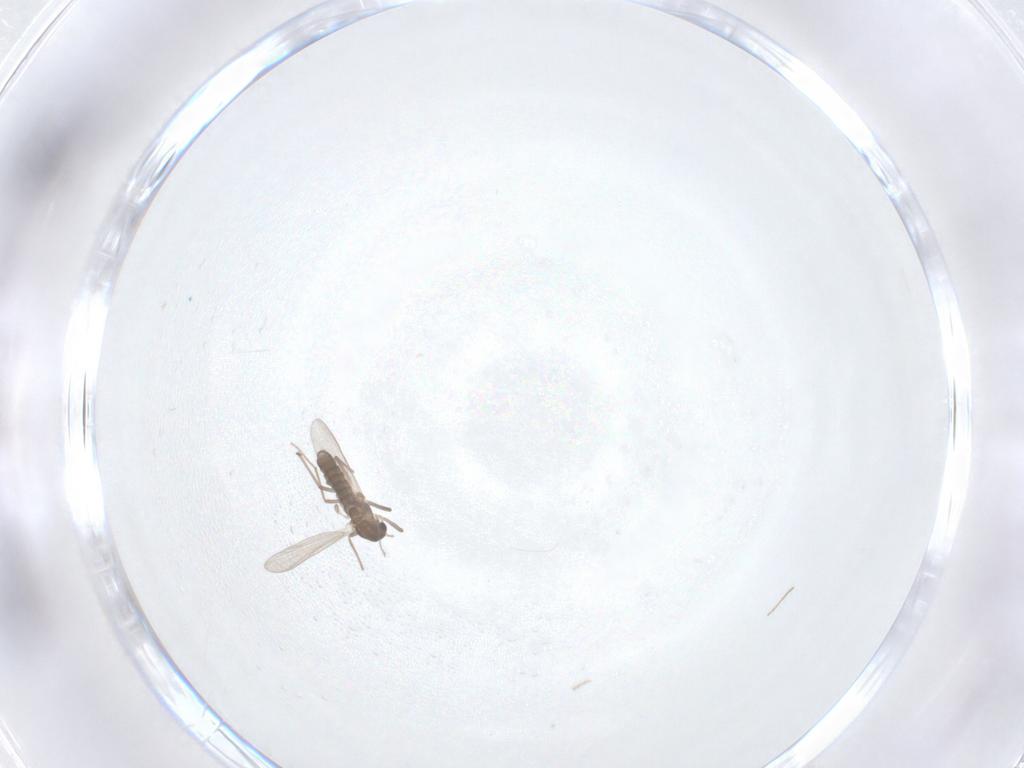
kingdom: Animalia
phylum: Arthropoda
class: Insecta
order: Diptera
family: Chironomidae
